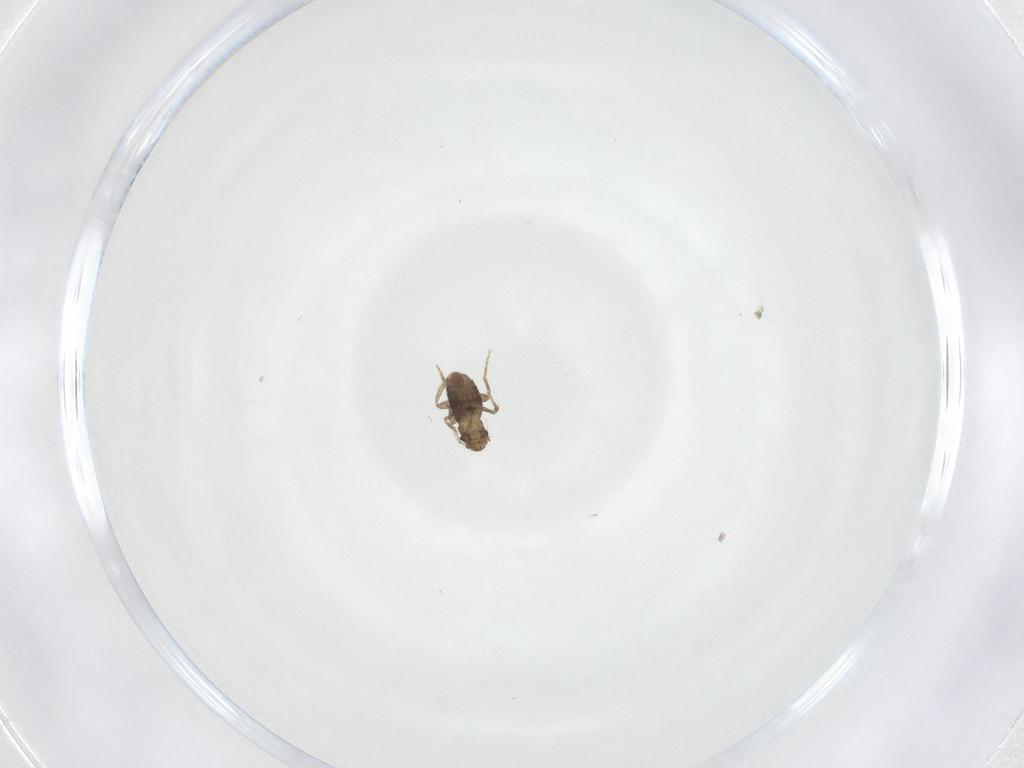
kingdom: Animalia
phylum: Arthropoda
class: Insecta
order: Diptera
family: Phoridae
